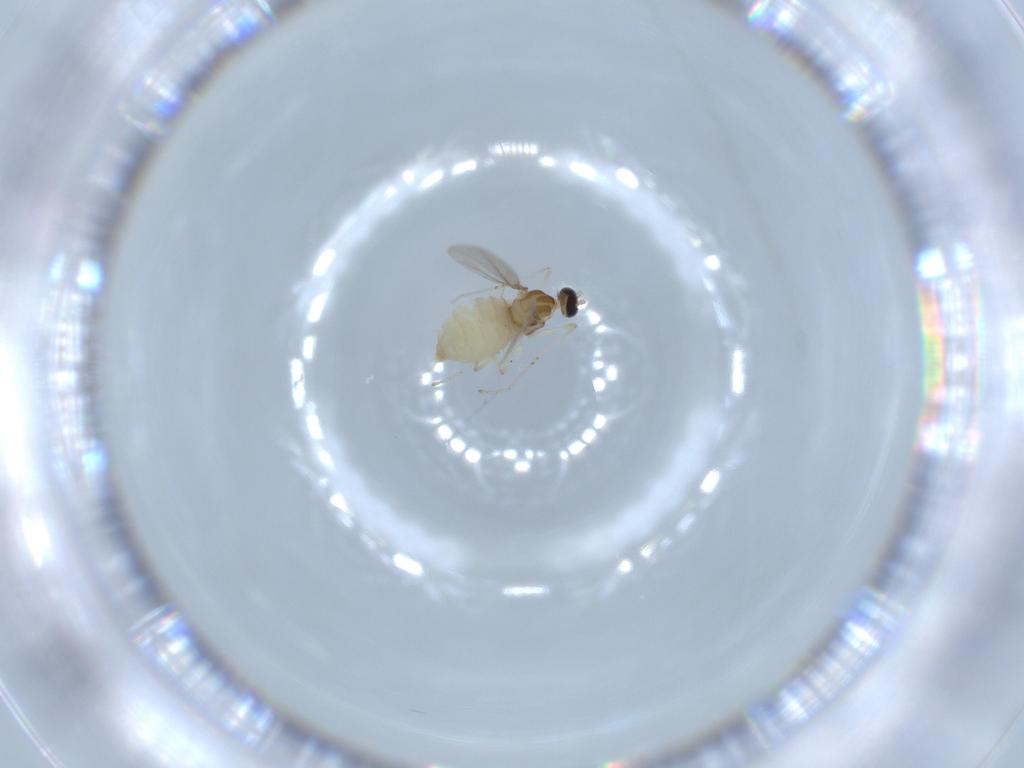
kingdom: Animalia
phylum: Arthropoda
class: Insecta
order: Diptera
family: Cecidomyiidae
